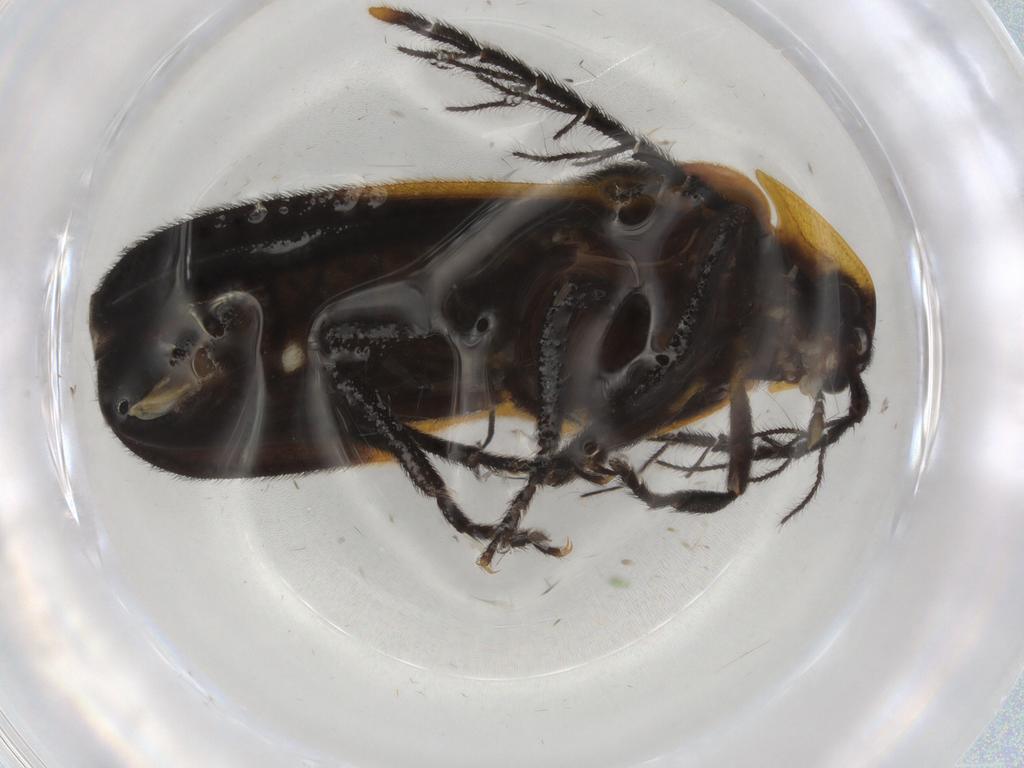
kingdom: Animalia
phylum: Arthropoda
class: Insecta
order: Coleoptera
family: Lampyridae
